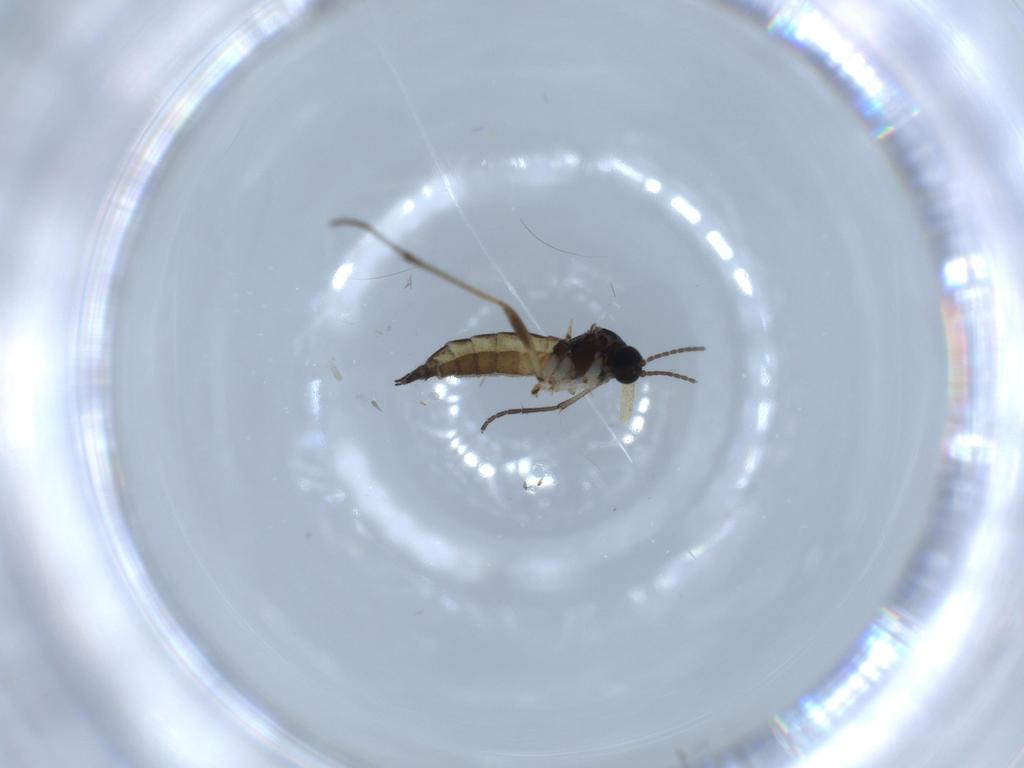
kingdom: Animalia
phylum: Arthropoda
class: Insecta
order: Diptera
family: Sciaridae
